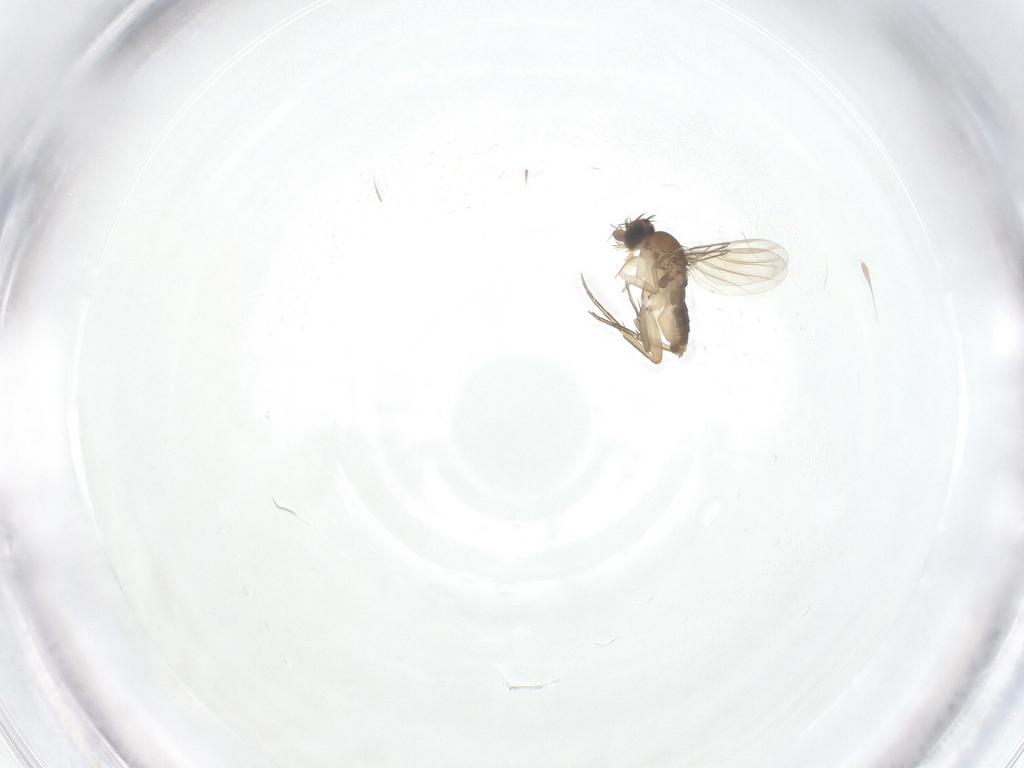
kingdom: Animalia
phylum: Arthropoda
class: Insecta
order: Diptera
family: Phoridae
